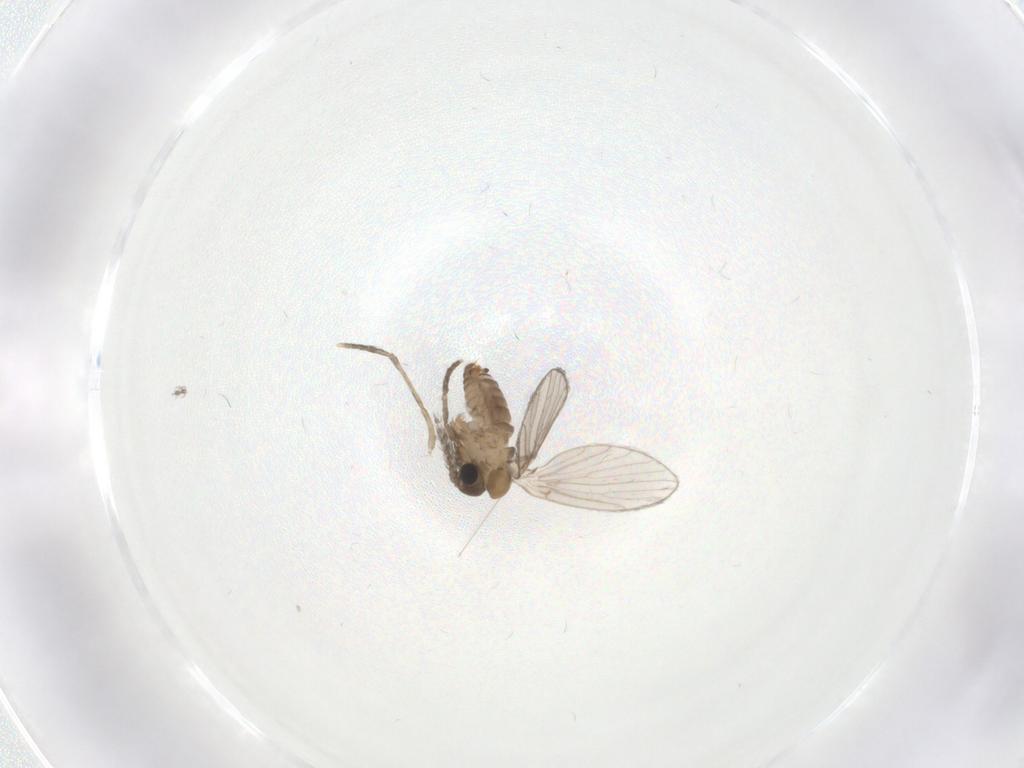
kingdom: Animalia
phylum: Arthropoda
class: Insecta
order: Diptera
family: Psychodidae
